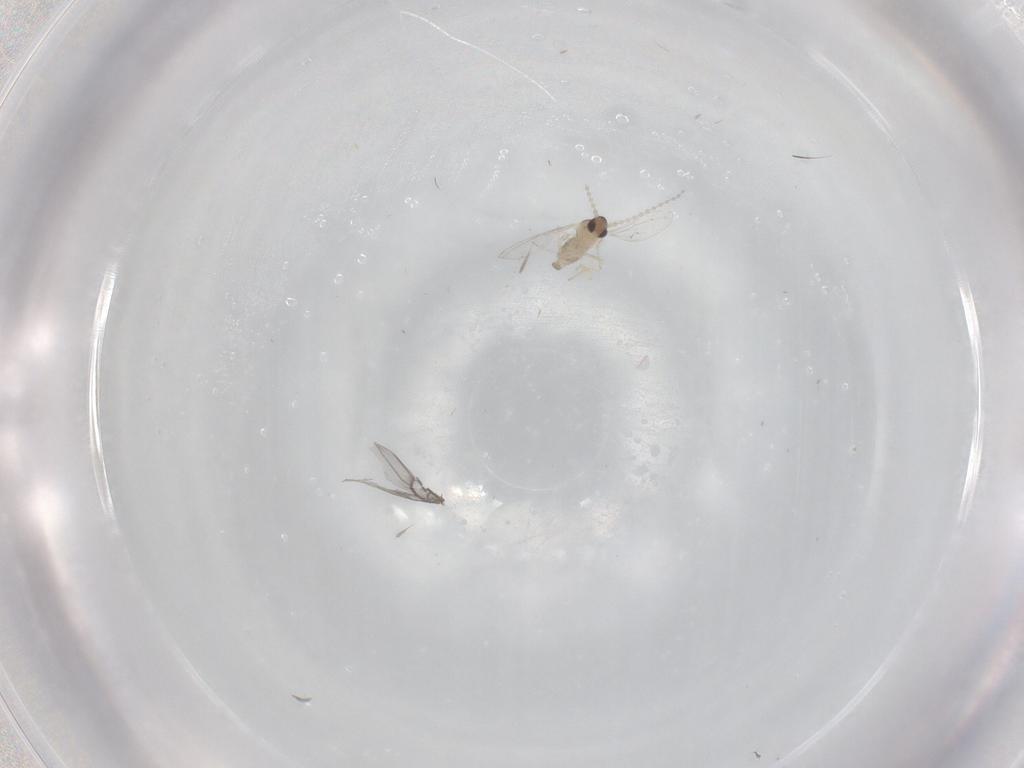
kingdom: Animalia
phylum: Arthropoda
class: Insecta
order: Diptera
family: Cecidomyiidae
